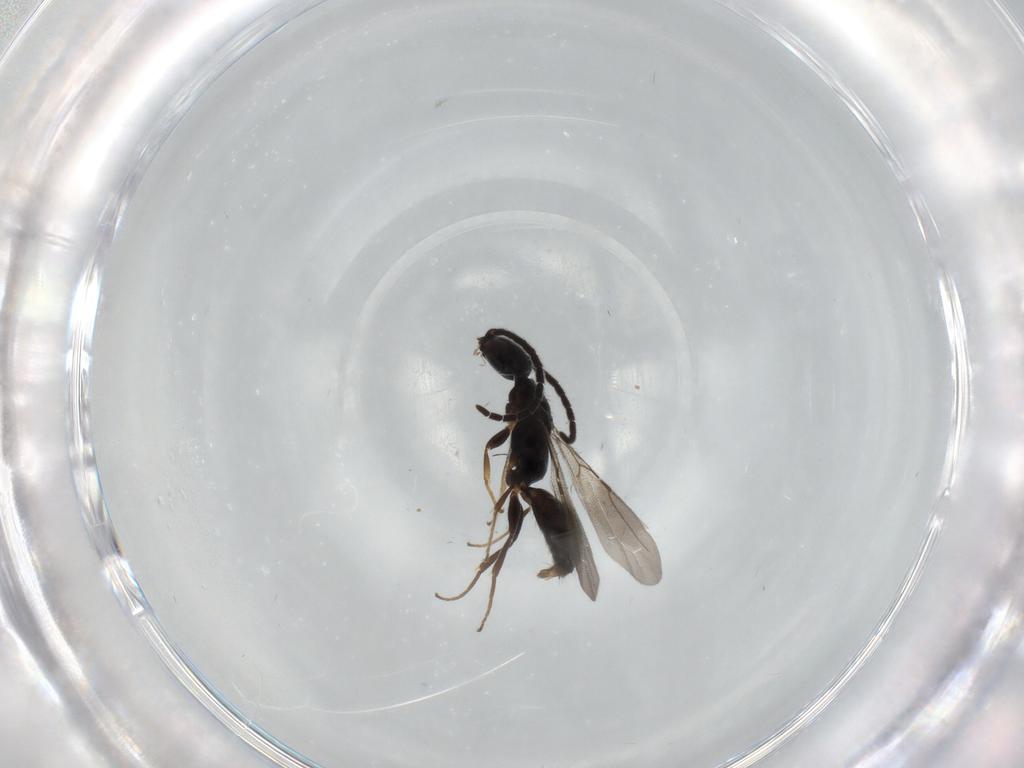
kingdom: Animalia
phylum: Arthropoda
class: Insecta
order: Hymenoptera
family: Bethylidae
